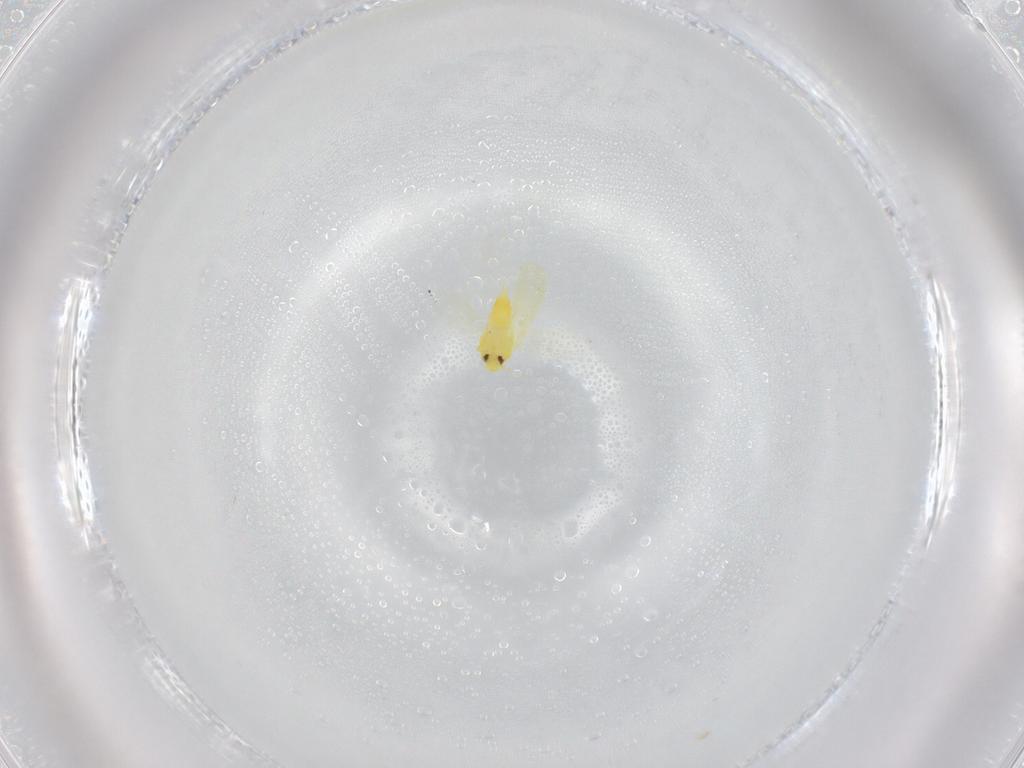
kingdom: Animalia
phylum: Arthropoda
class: Insecta
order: Hemiptera
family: Aleyrodidae
